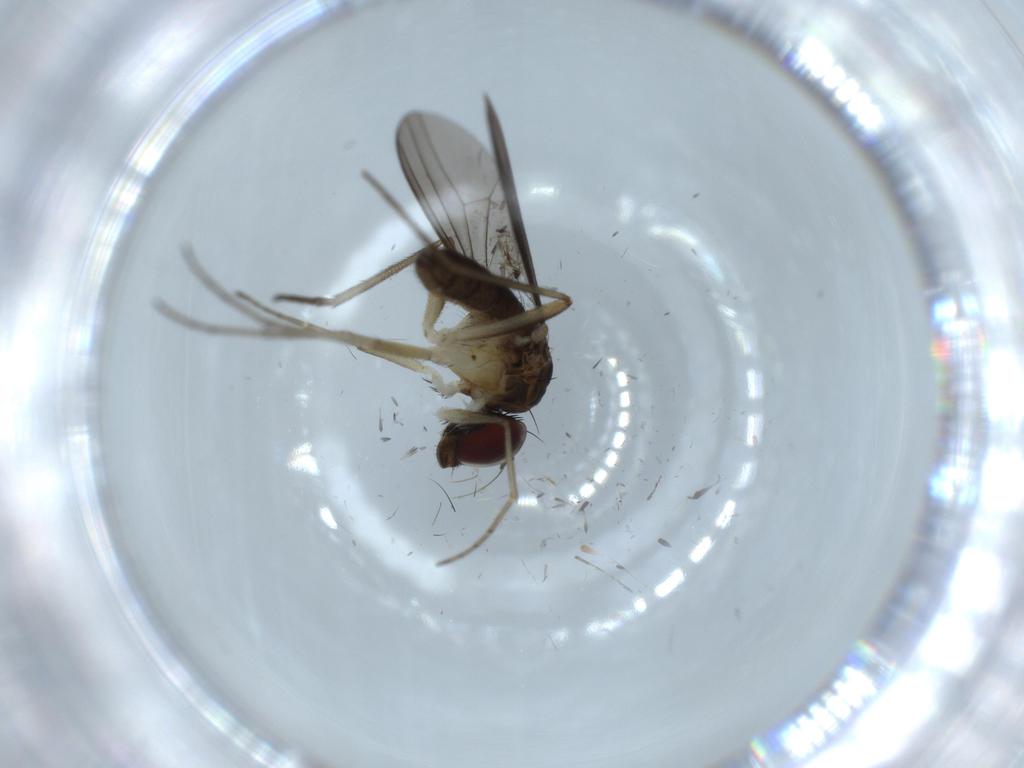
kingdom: Animalia
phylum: Arthropoda
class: Insecta
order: Diptera
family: Dolichopodidae
